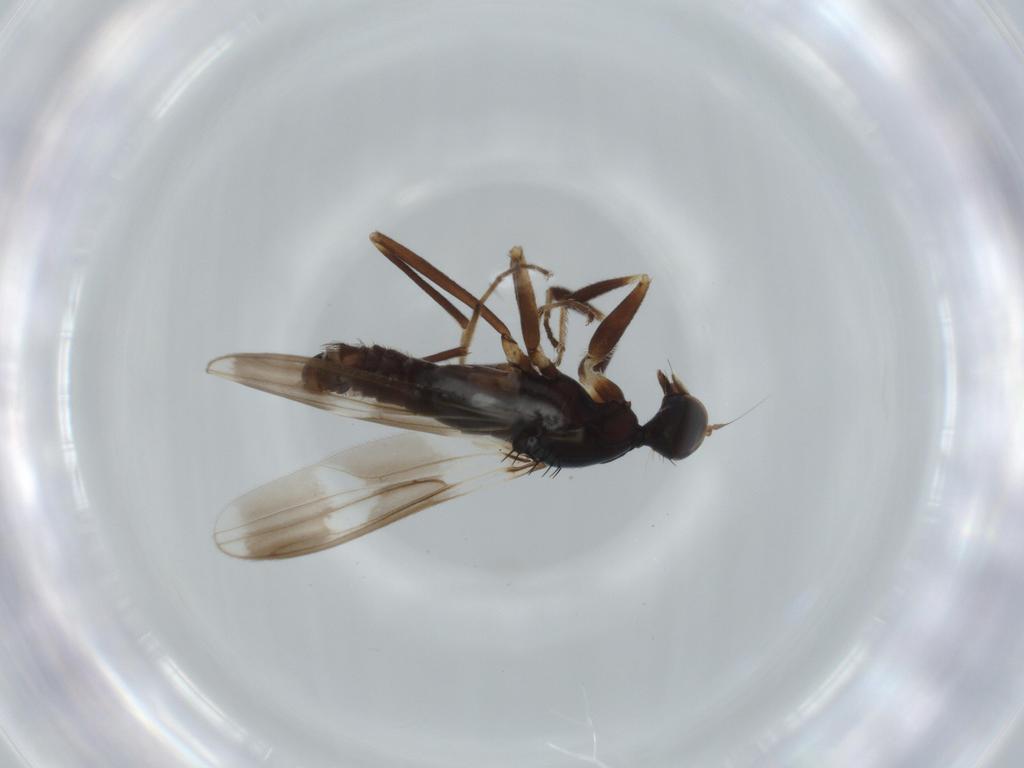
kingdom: Animalia
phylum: Arthropoda
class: Insecta
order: Diptera
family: Hybotidae
